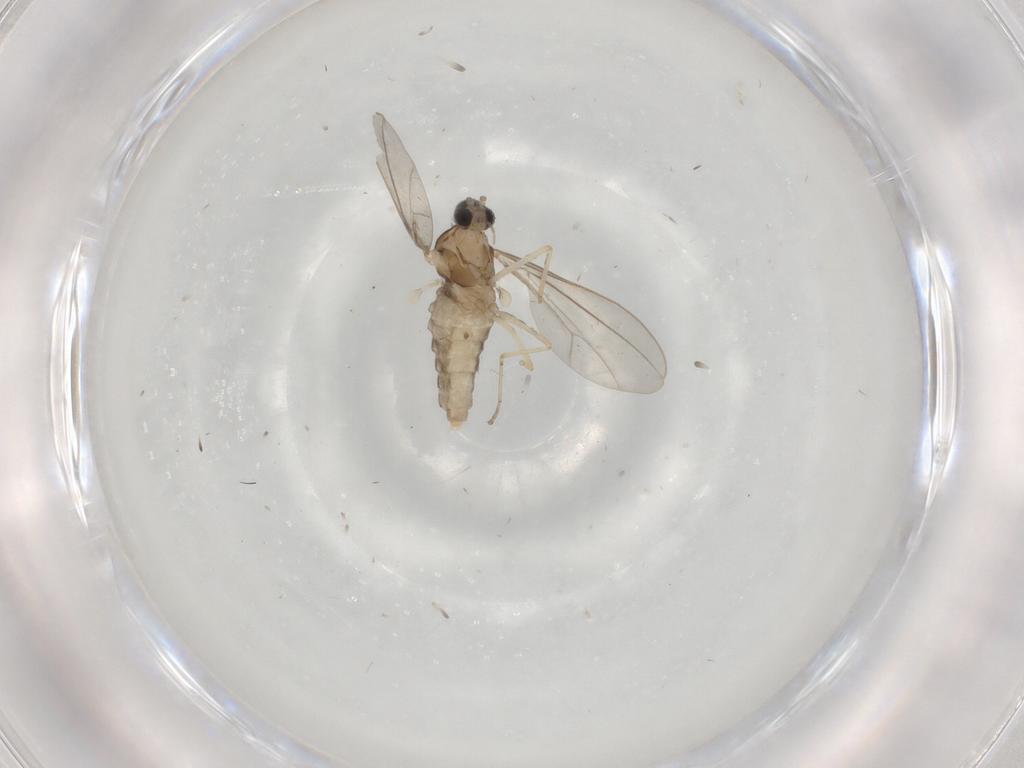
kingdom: Animalia
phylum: Arthropoda
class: Insecta
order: Diptera
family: Cecidomyiidae
